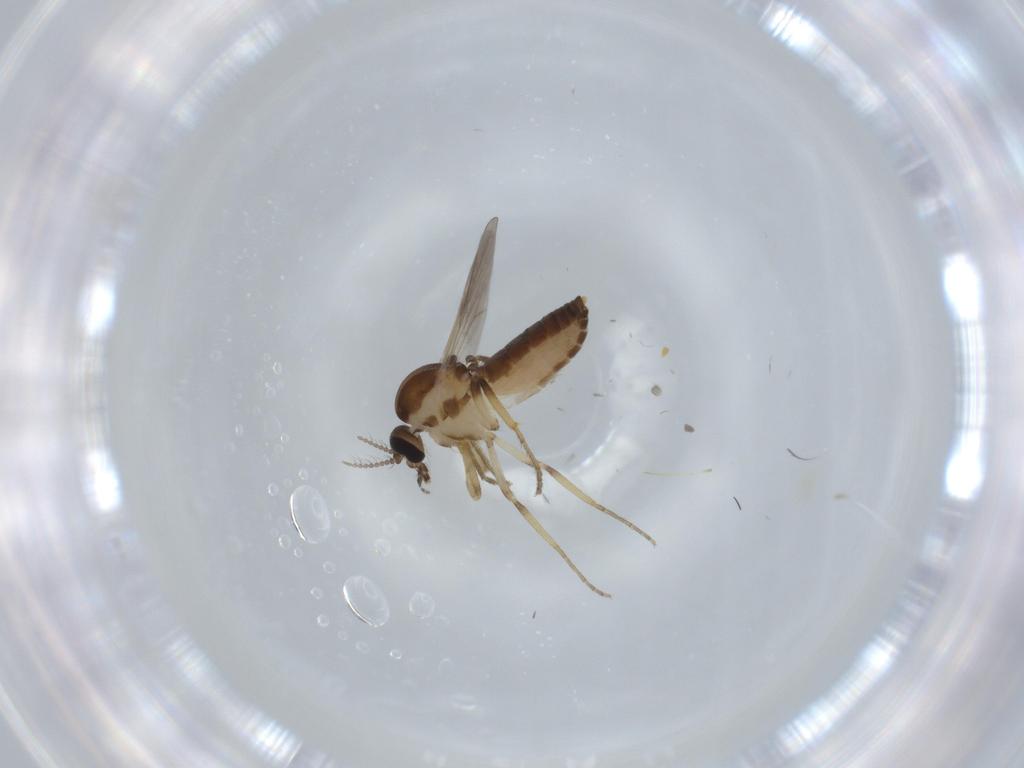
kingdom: Animalia
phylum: Arthropoda
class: Insecta
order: Diptera
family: Ceratopogonidae
